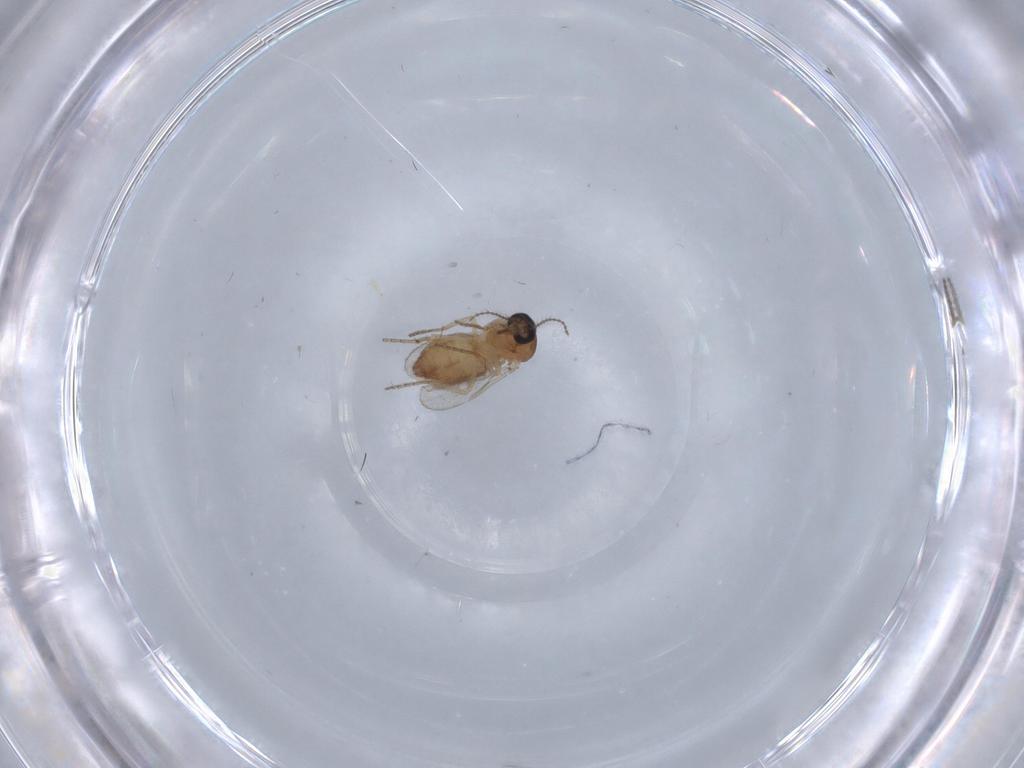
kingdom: Animalia
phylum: Arthropoda
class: Insecta
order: Diptera
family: Ceratopogonidae
